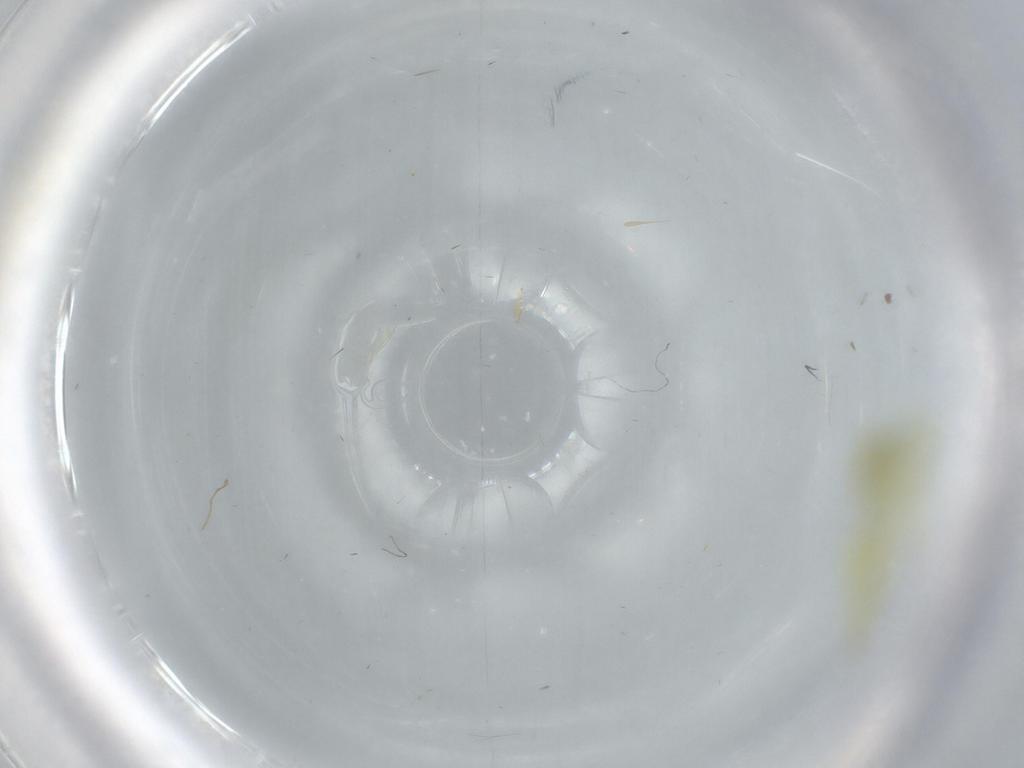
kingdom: Animalia
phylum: Arthropoda
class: Insecta
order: Hemiptera
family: Cicadellidae
